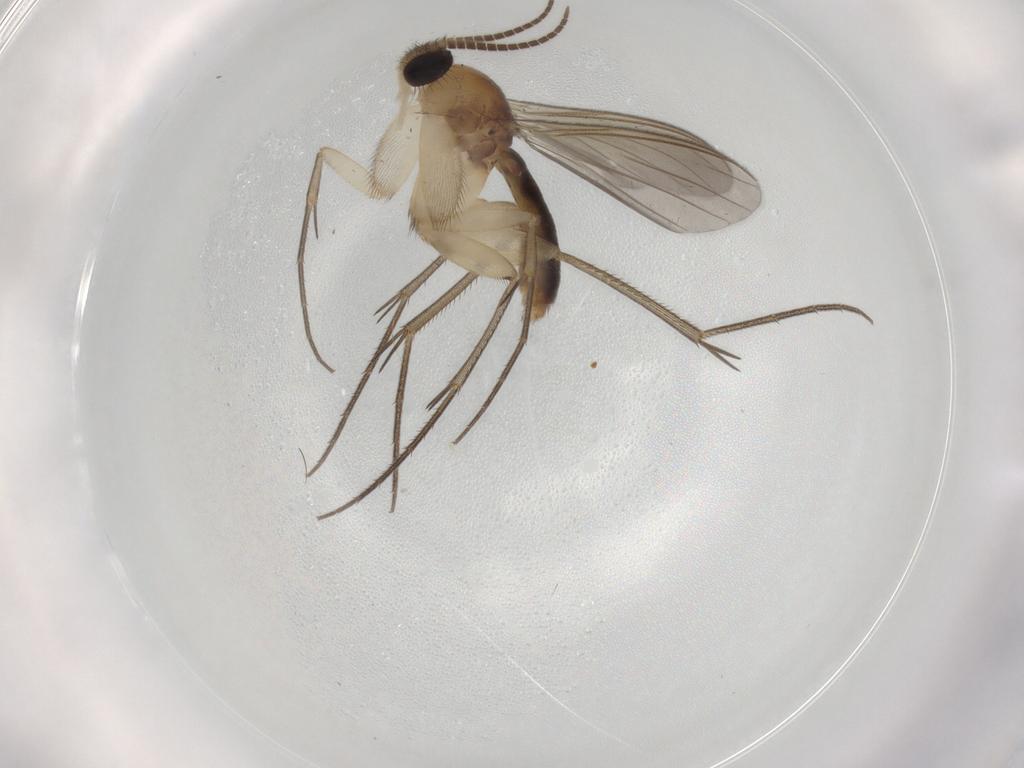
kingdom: Animalia
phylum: Arthropoda
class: Insecta
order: Diptera
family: Mycetophilidae
